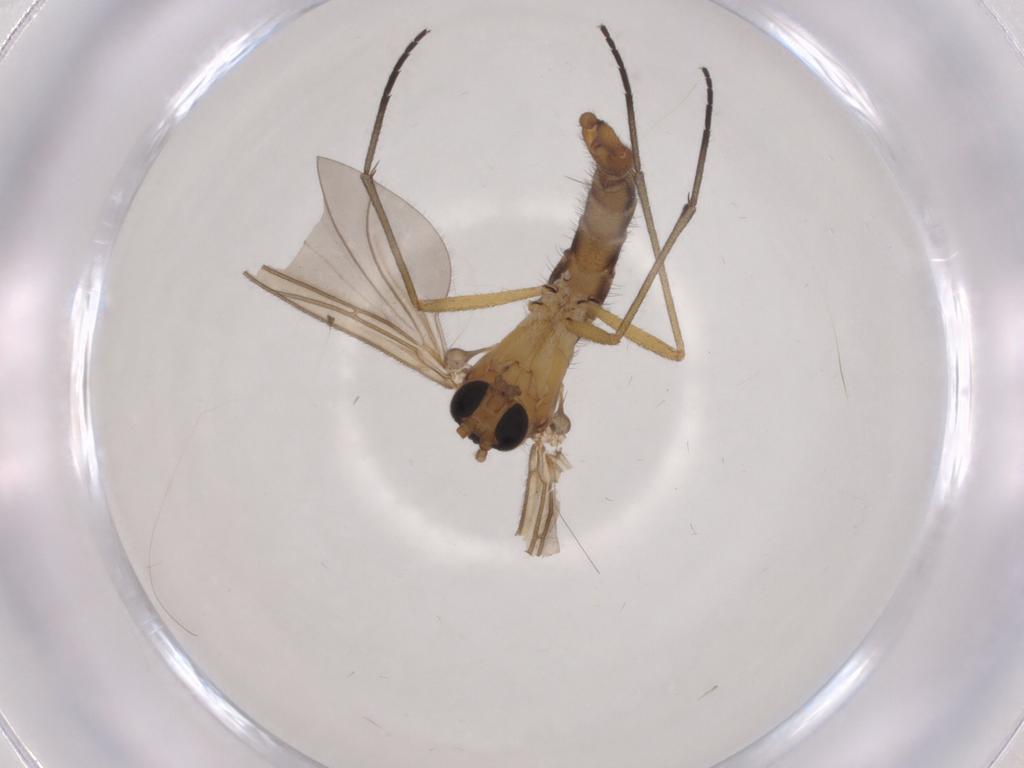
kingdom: Animalia
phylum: Arthropoda
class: Insecta
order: Diptera
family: Sciaridae
